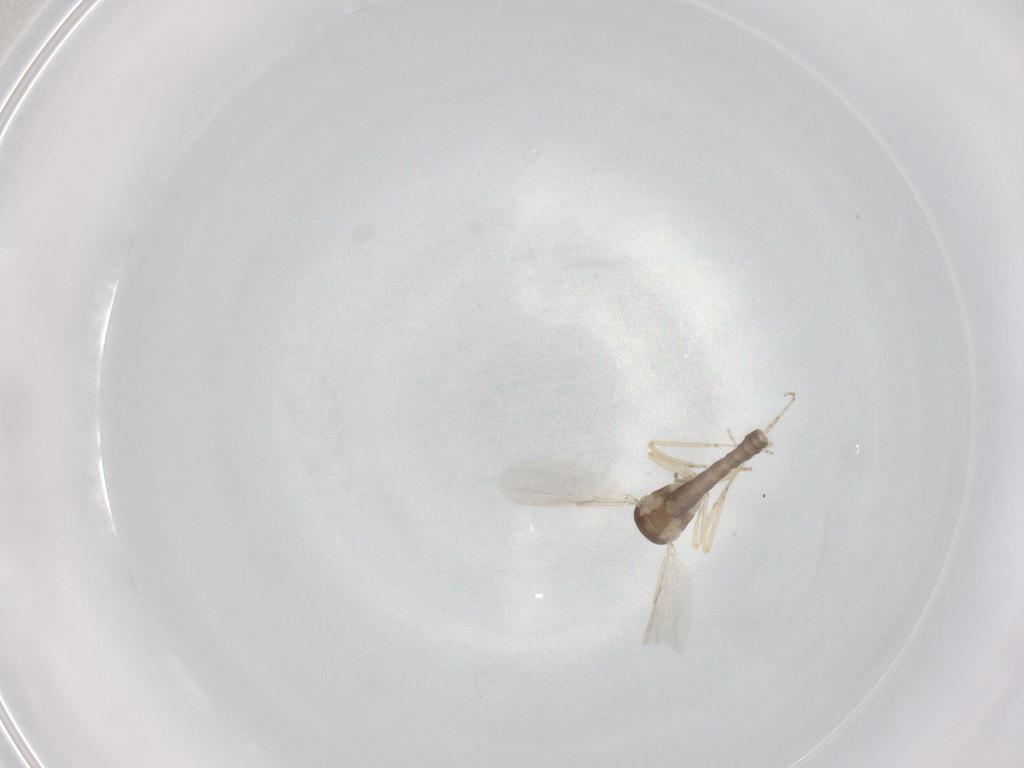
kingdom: Animalia
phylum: Arthropoda
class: Insecta
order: Diptera
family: Ceratopogonidae
